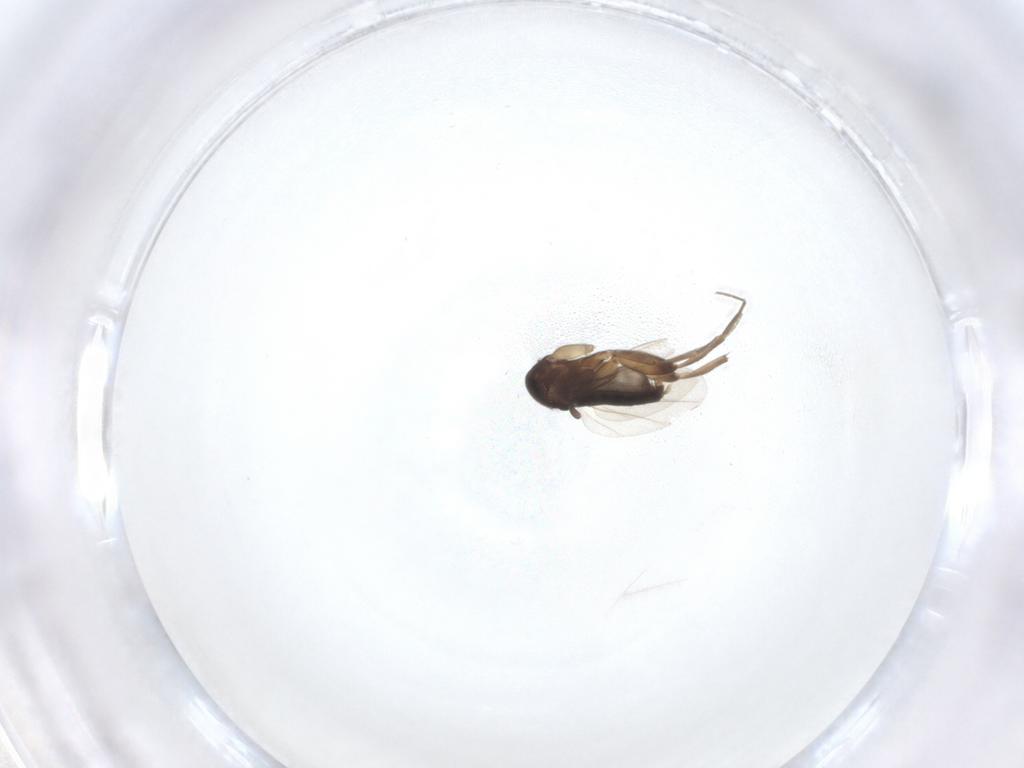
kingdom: Animalia
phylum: Arthropoda
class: Insecta
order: Diptera
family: Phoridae
